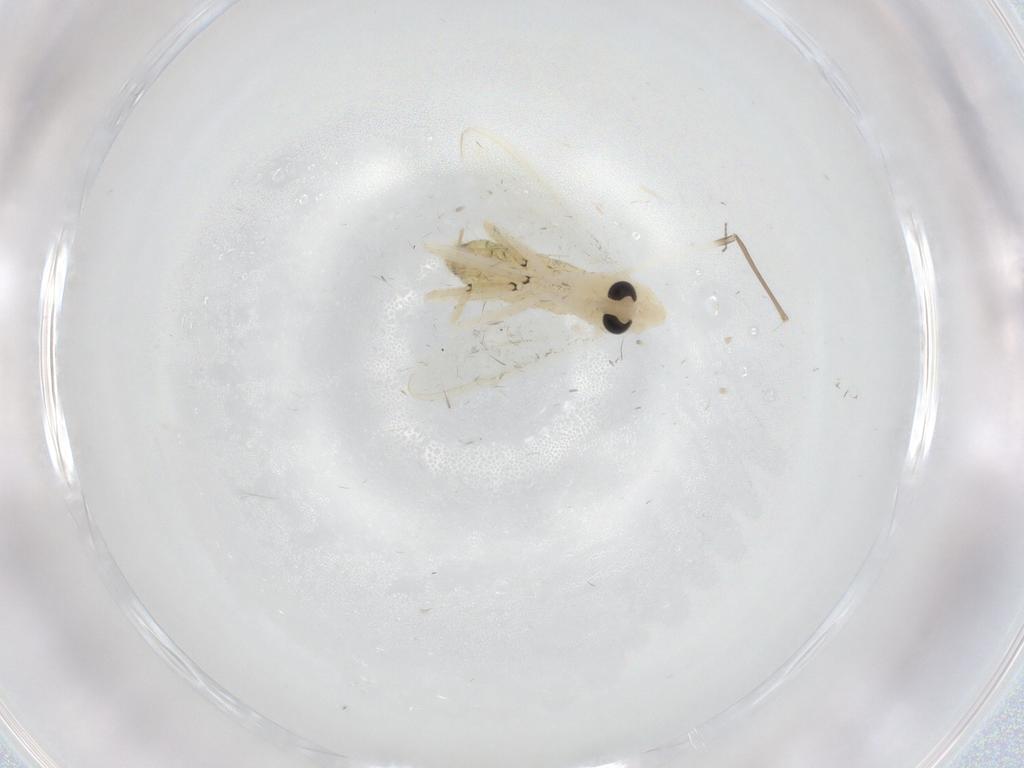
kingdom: Animalia
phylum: Arthropoda
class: Insecta
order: Diptera
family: Chironomidae
